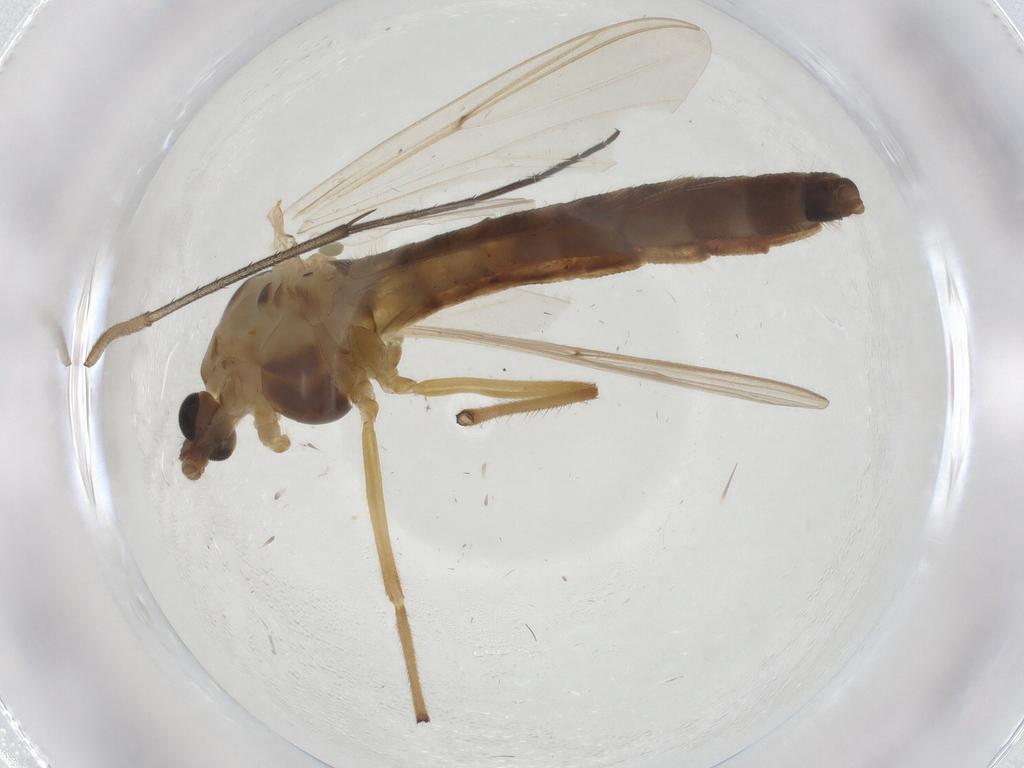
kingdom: Animalia
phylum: Arthropoda
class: Insecta
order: Diptera
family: Chironomidae
